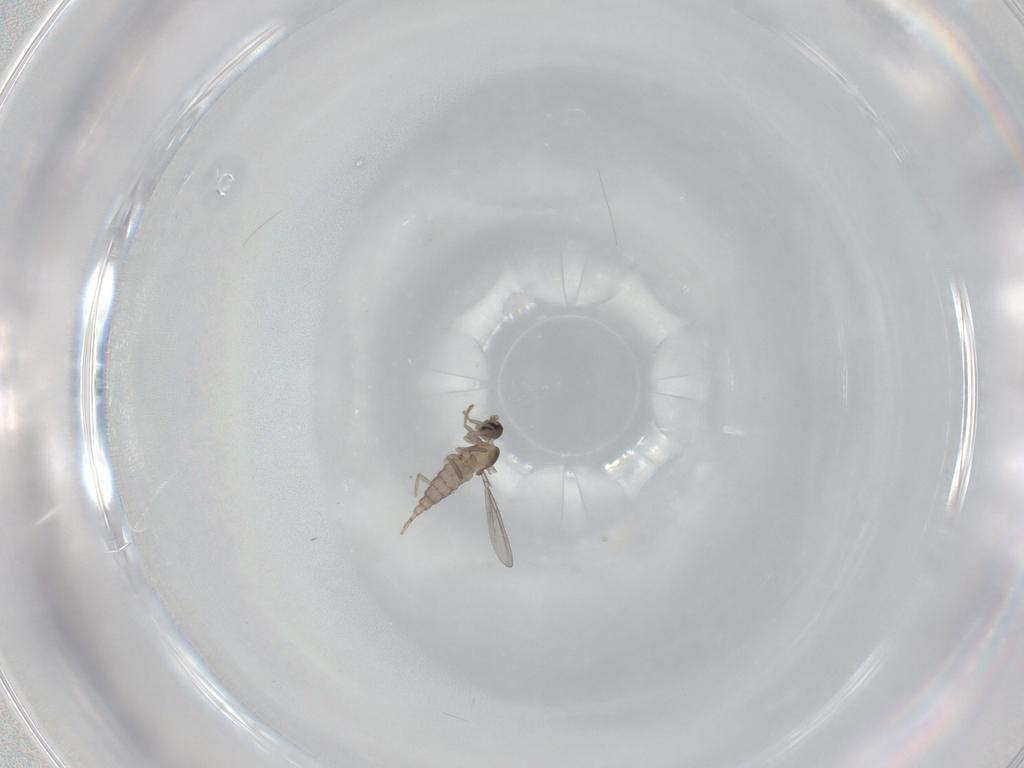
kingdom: Animalia
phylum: Arthropoda
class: Insecta
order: Diptera
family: Cecidomyiidae
